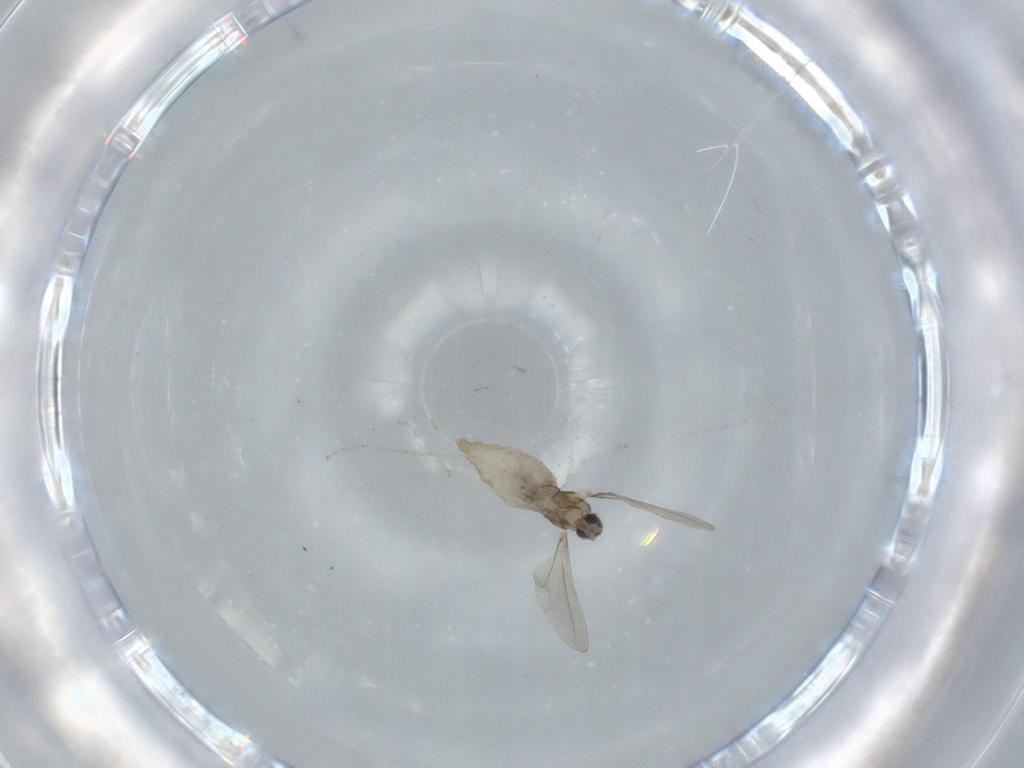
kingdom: Animalia
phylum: Arthropoda
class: Insecta
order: Diptera
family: Cecidomyiidae
